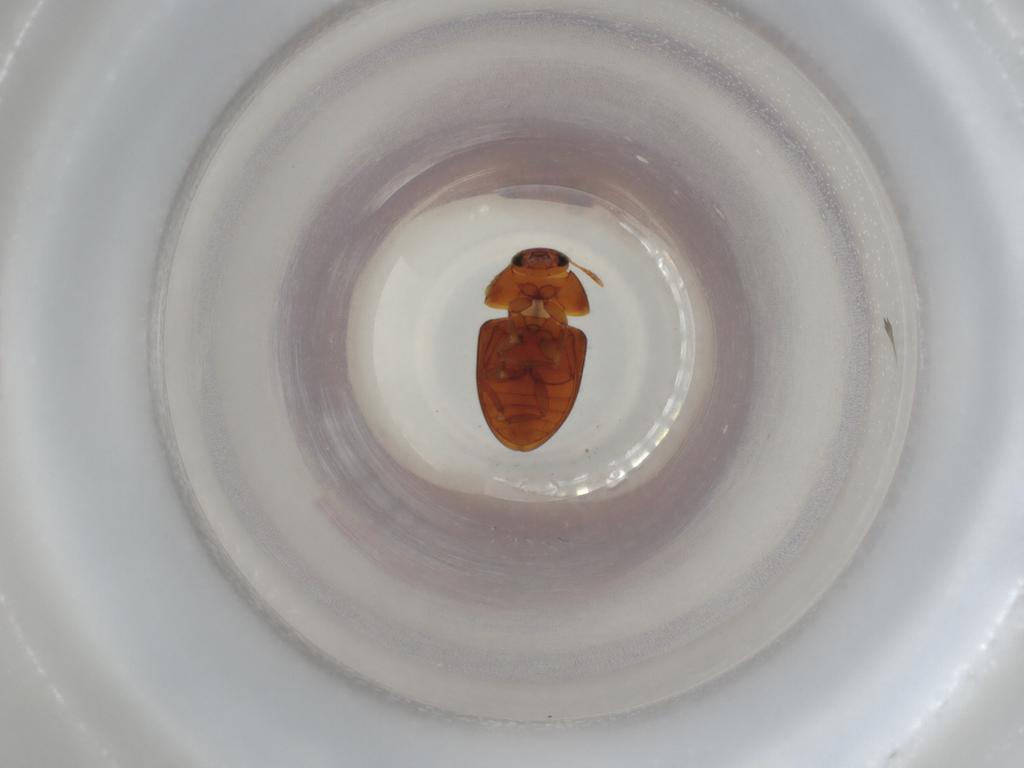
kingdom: Animalia
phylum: Arthropoda
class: Insecta
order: Coleoptera
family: Phalacridae
